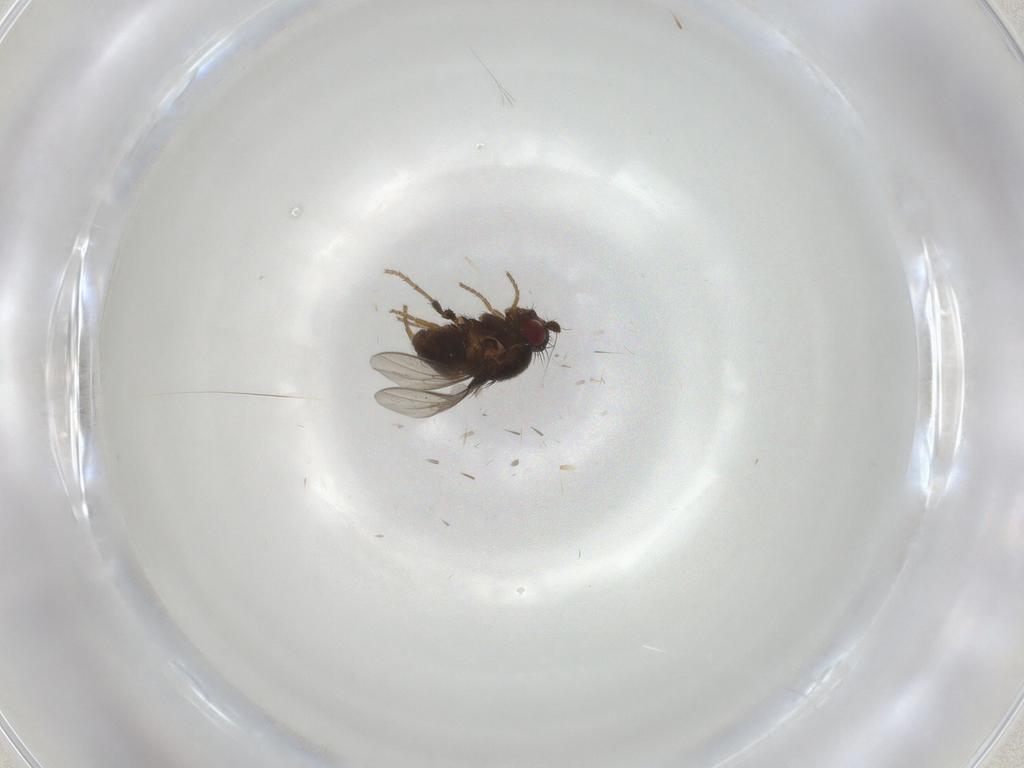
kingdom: Animalia
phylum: Arthropoda
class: Insecta
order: Diptera
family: Sphaeroceridae
